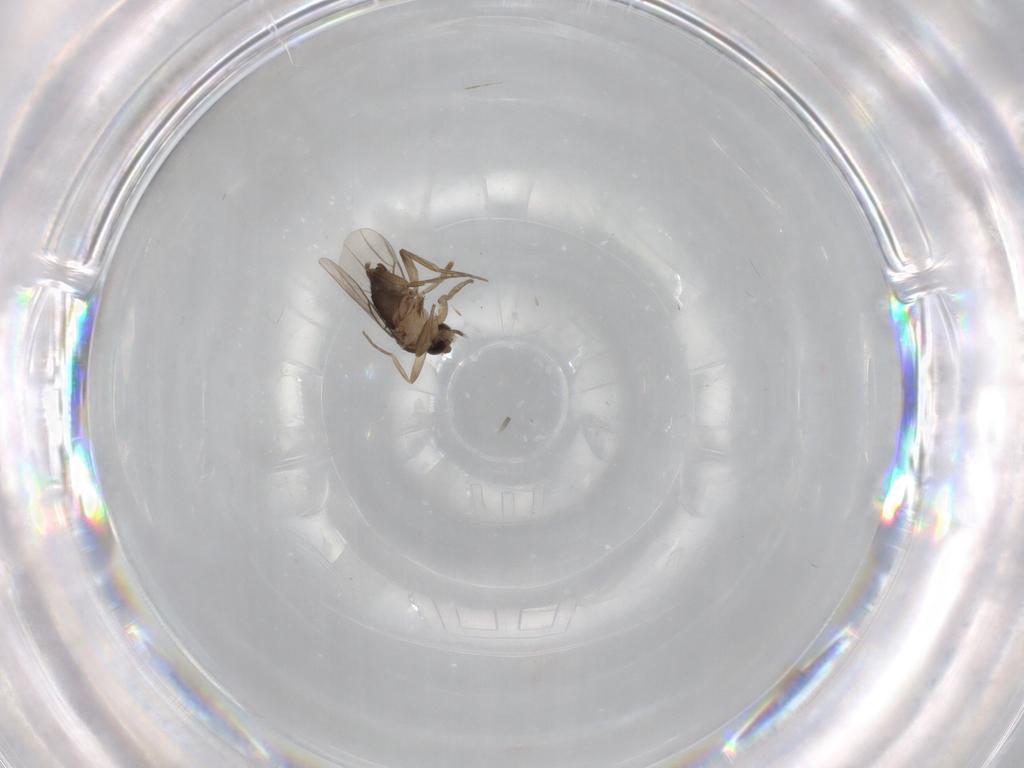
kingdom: Animalia
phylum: Arthropoda
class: Insecta
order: Diptera
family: Phoridae
